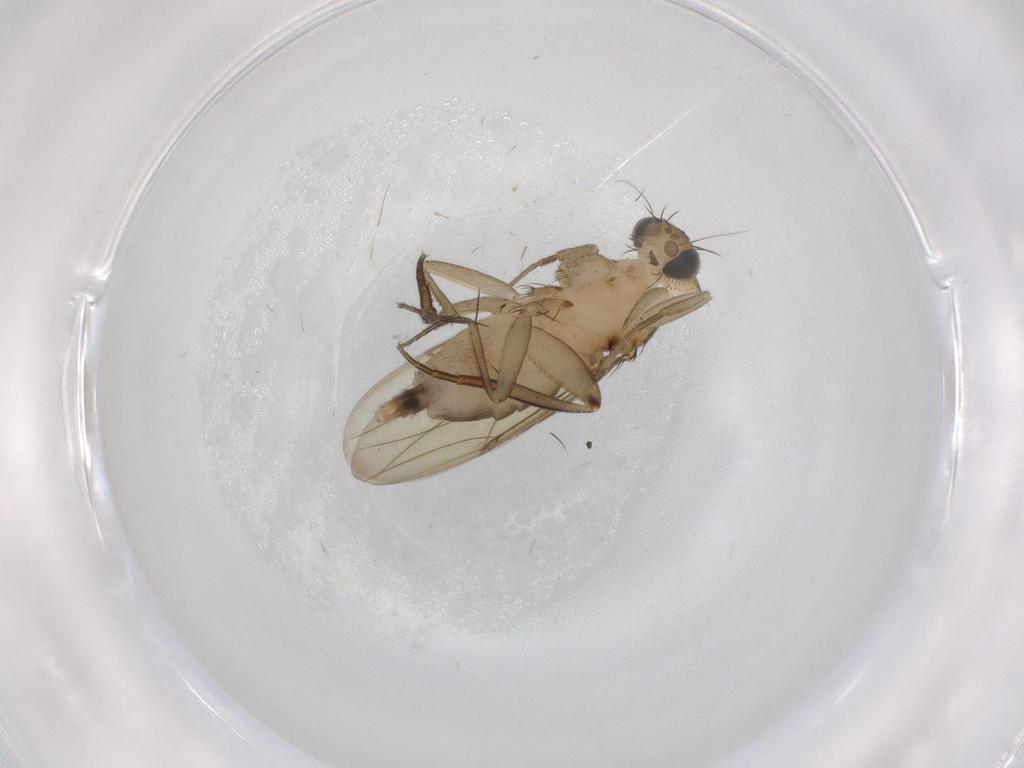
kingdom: Animalia
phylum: Arthropoda
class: Insecta
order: Diptera
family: Phoridae
